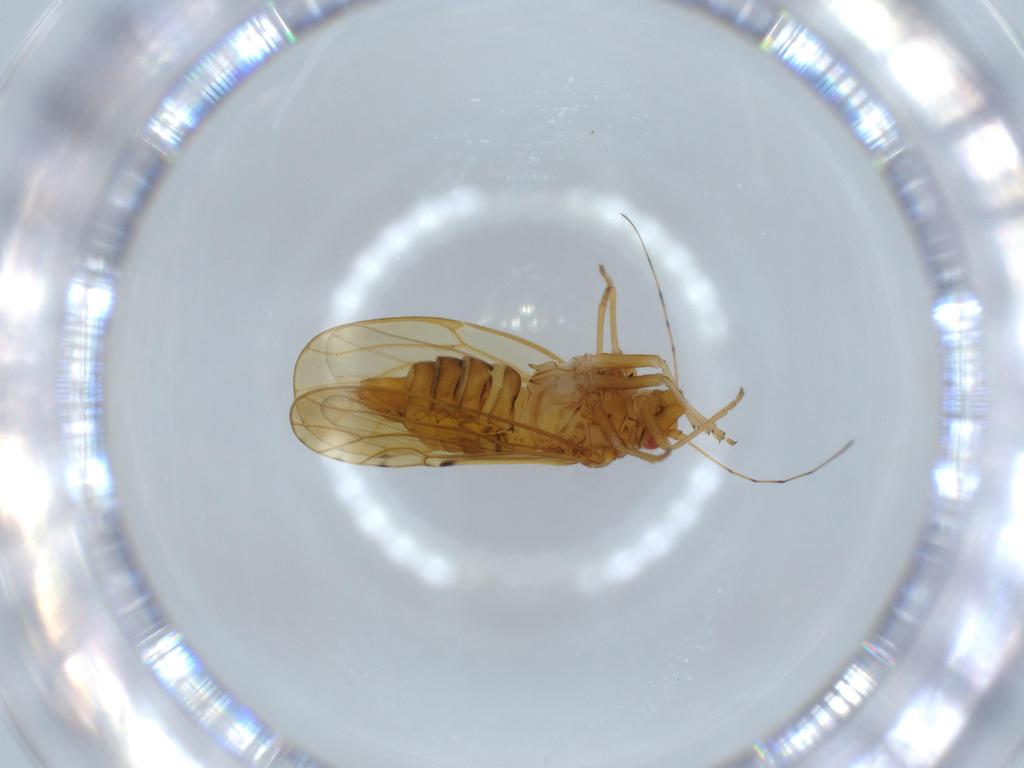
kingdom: Animalia
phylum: Arthropoda
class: Insecta
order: Hemiptera
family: Psylloidea_incertae_sedis
